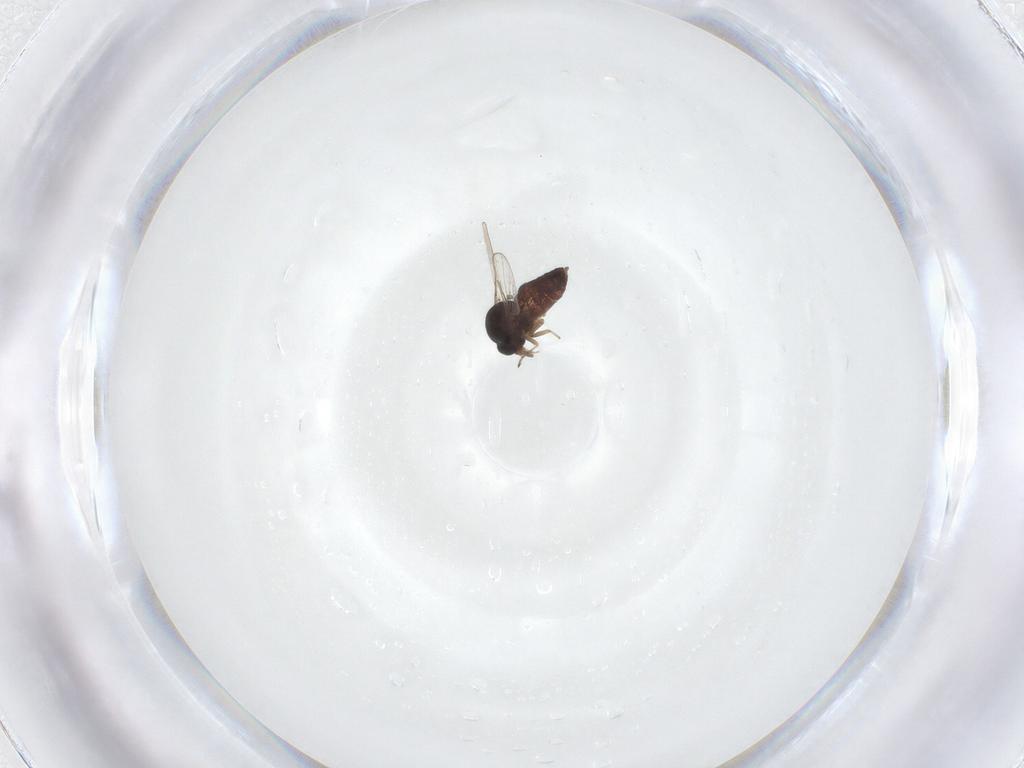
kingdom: Animalia
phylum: Arthropoda
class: Insecta
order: Diptera
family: Ceratopogonidae
